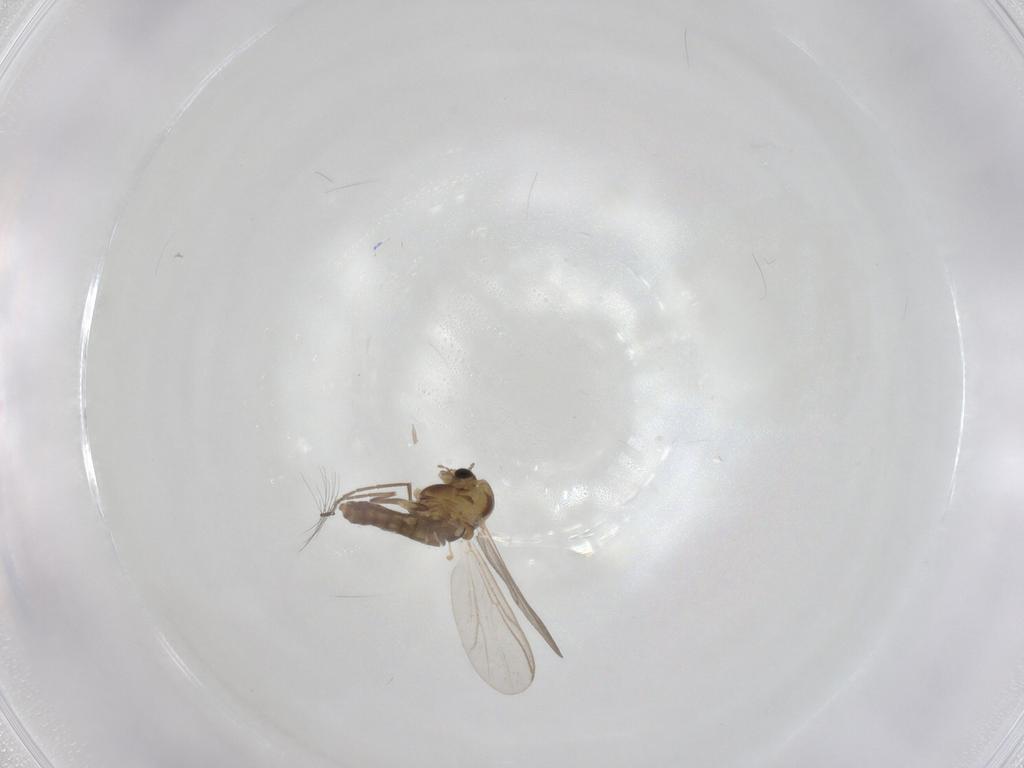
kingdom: Animalia
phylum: Arthropoda
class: Insecta
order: Diptera
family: Chironomidae
